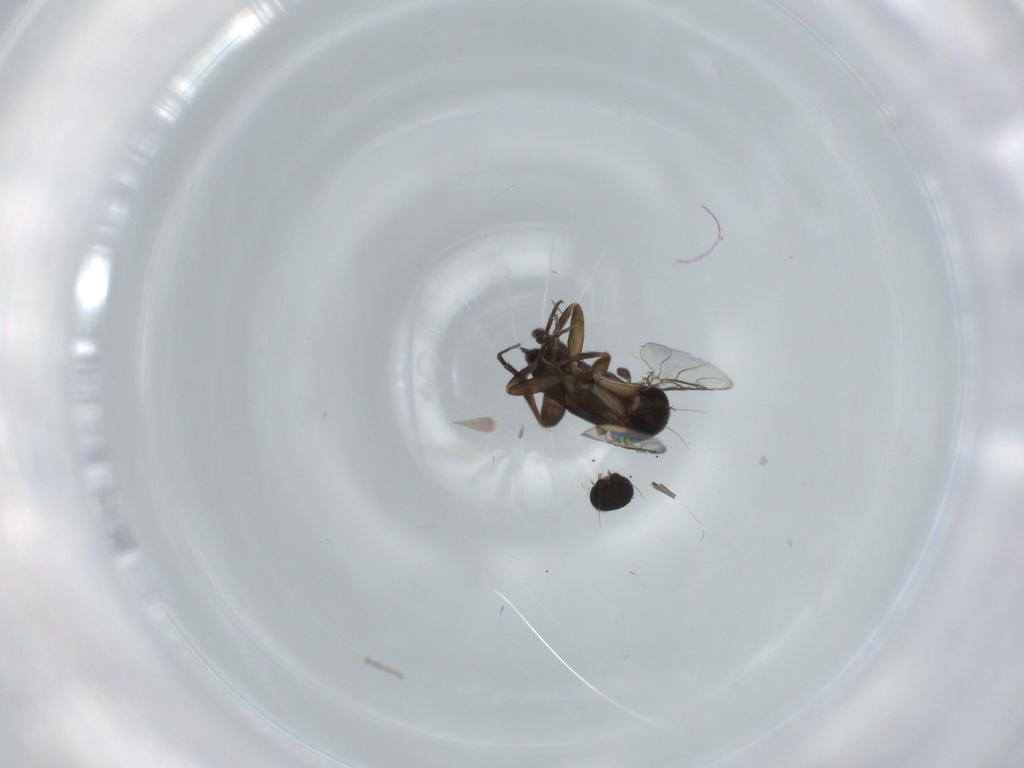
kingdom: Animalia
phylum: Arthropoda
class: Insecta
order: Diptera
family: Phoridae
